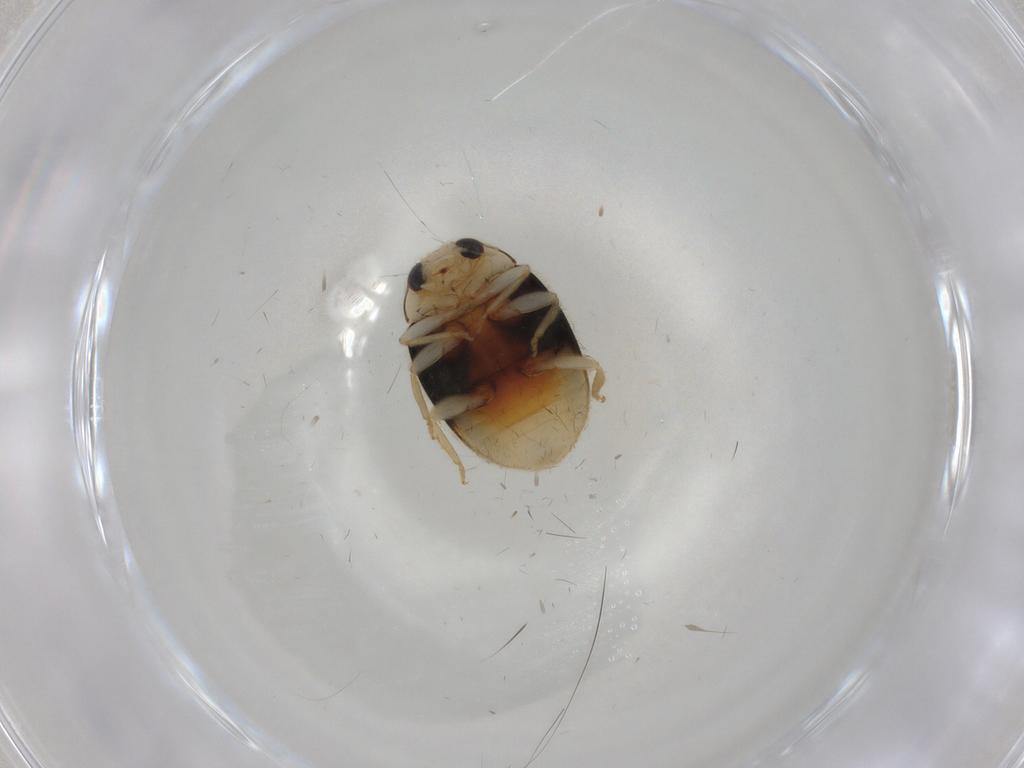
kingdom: Animalia
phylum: Arthropoda
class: Insecta
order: Coleoptera
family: Coccinellidae
